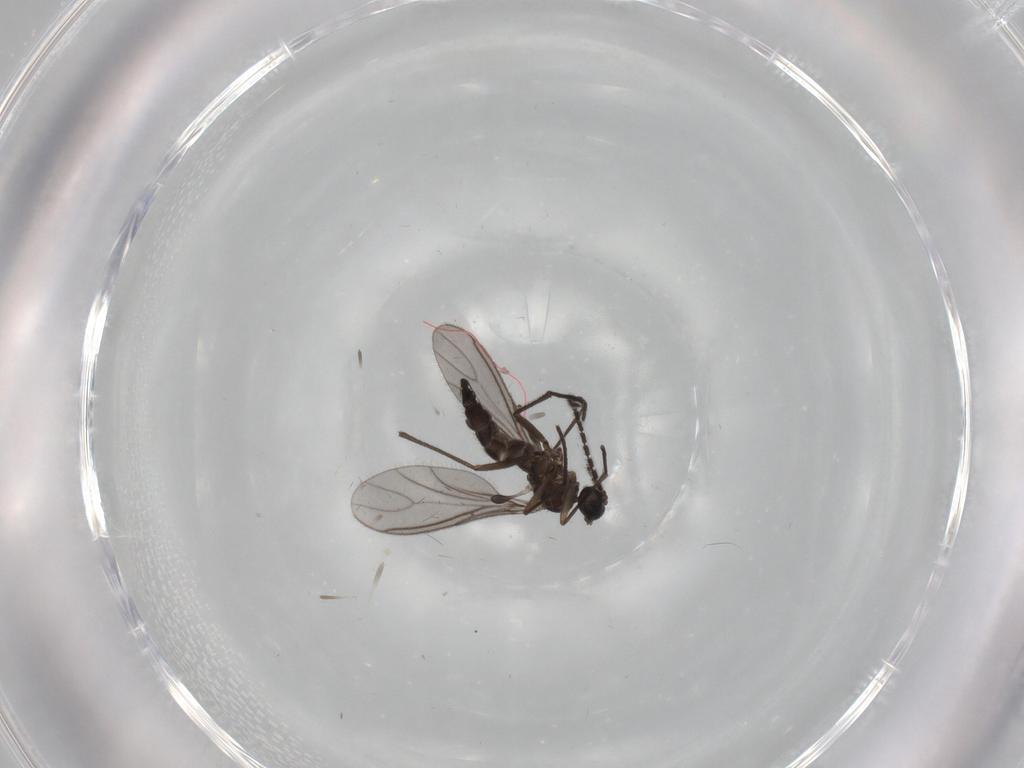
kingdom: Animalia
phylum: Arthropoda
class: Insecta
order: Diptera
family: Sciaridae
